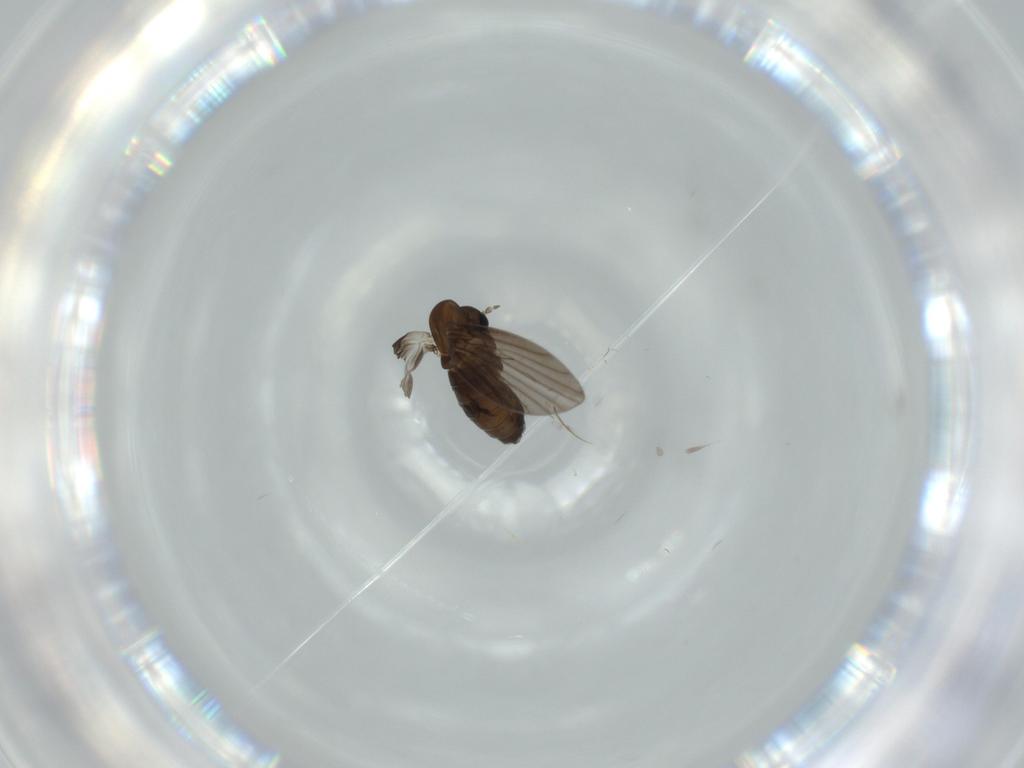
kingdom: Animalia
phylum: Arthropoda
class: Insecta
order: Diptera
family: Psychodidae
